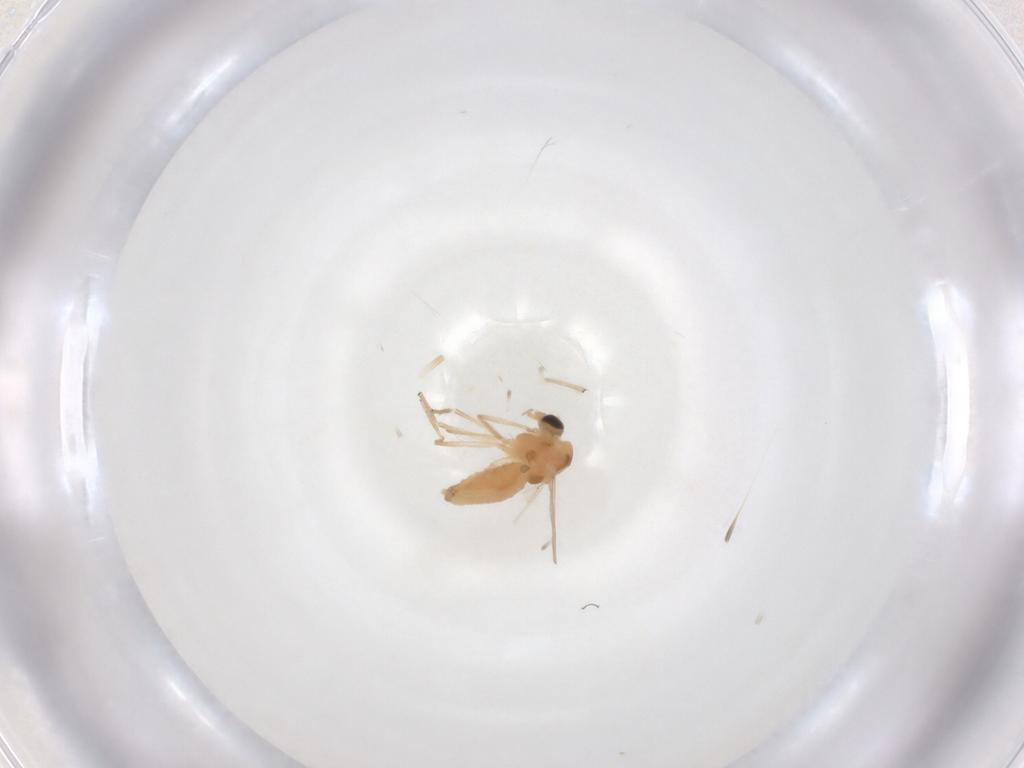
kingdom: Animalia
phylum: Arthropoda
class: Insecta
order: Diptera
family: Chironomidae
